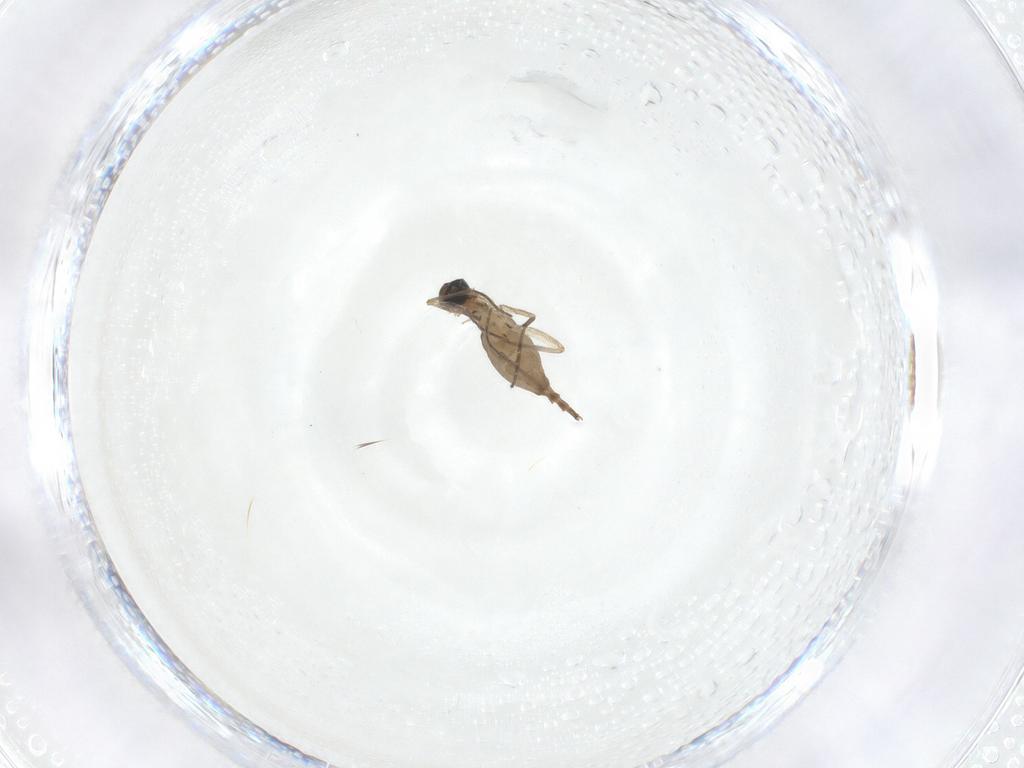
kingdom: Animalia
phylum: Arthropoda
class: Insecta
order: Diptera
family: Sciaridae
